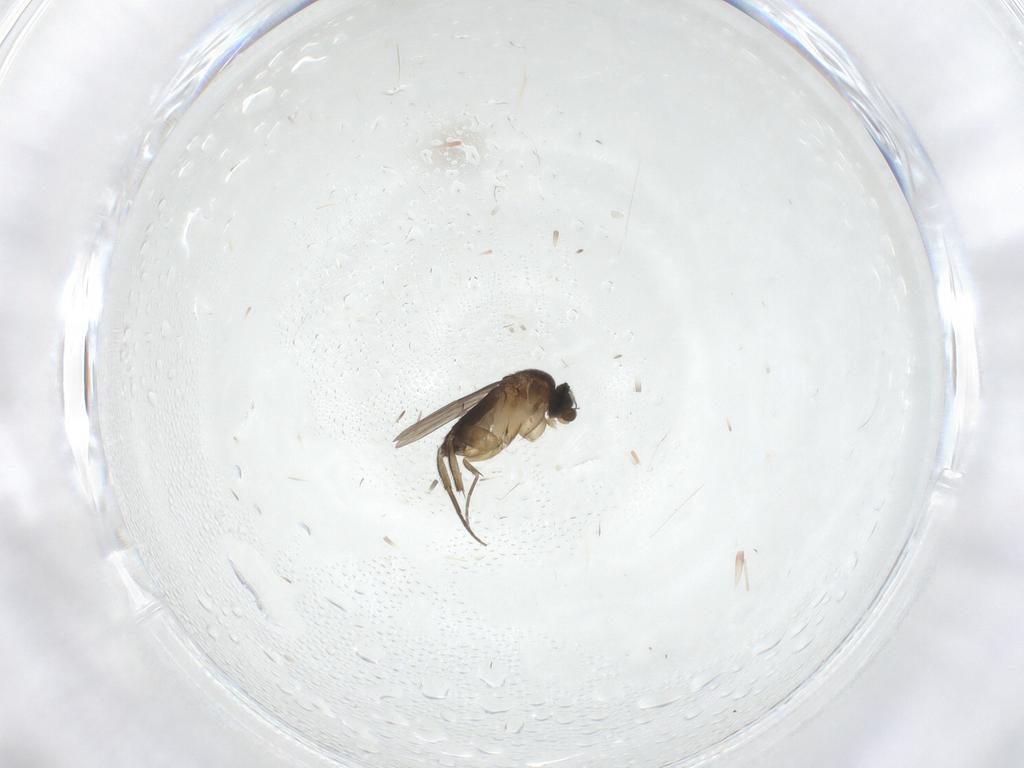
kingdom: Animalia
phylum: Arthropoda
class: Insecta
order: Diptera
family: Phoridae
